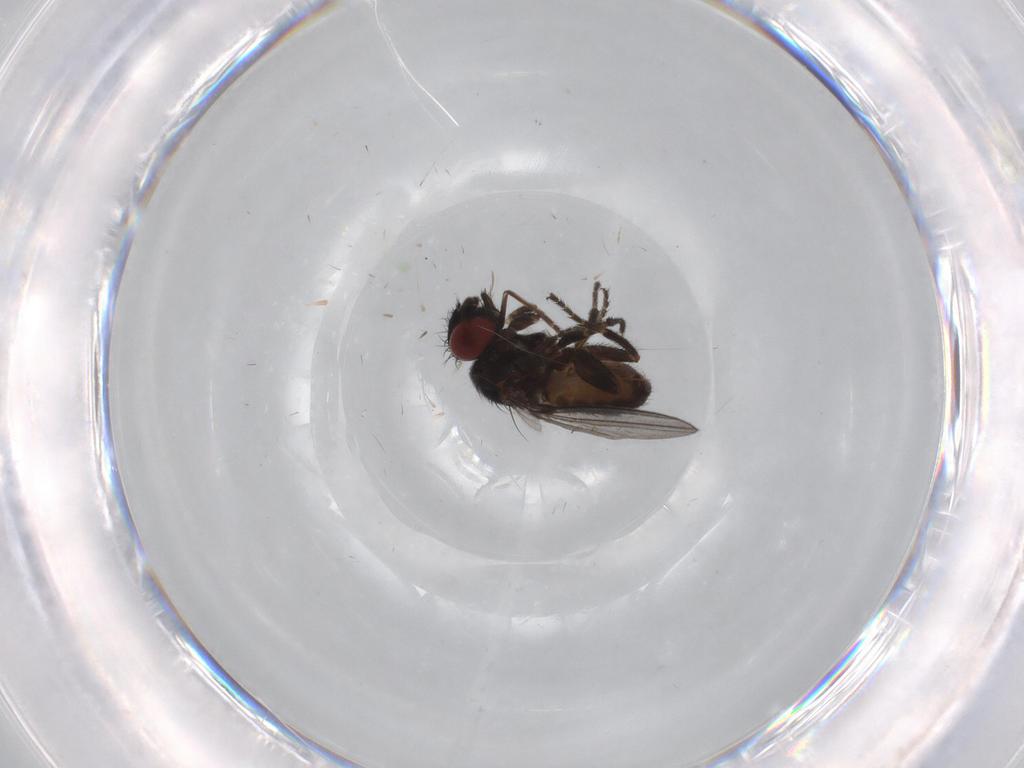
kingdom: Animalia
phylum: Arthropoda
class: Insecta
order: Diptera
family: Milichiidae
